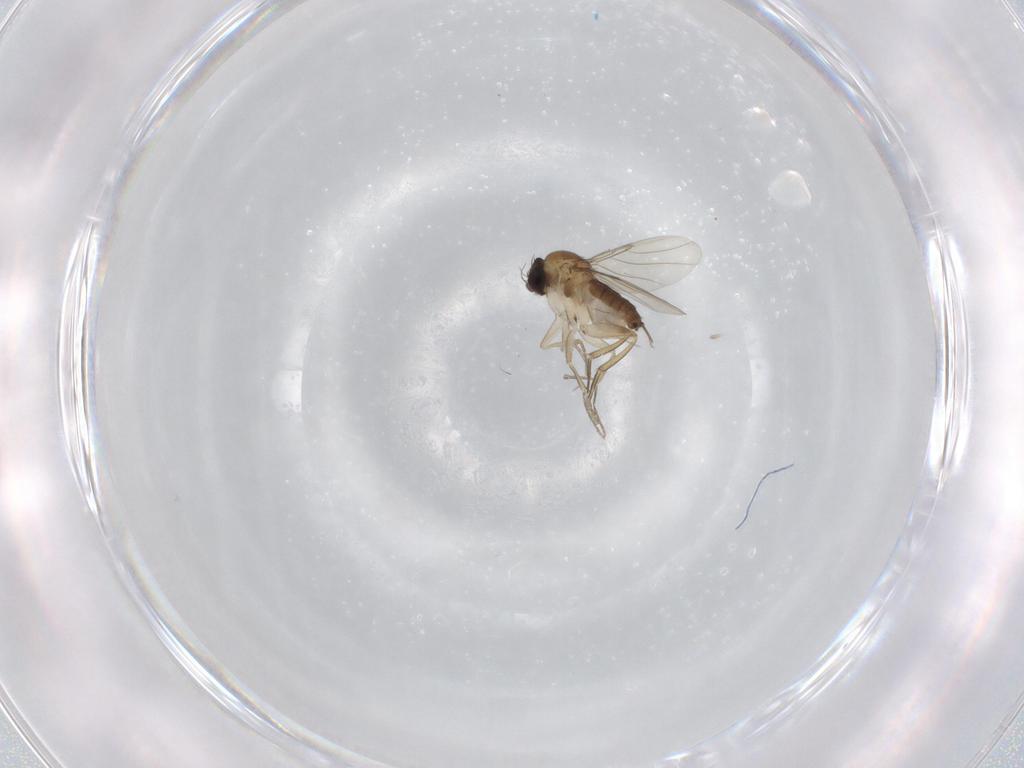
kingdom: Animalia
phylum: Arthropoda
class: Insecta
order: Diptera
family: Phoridae
